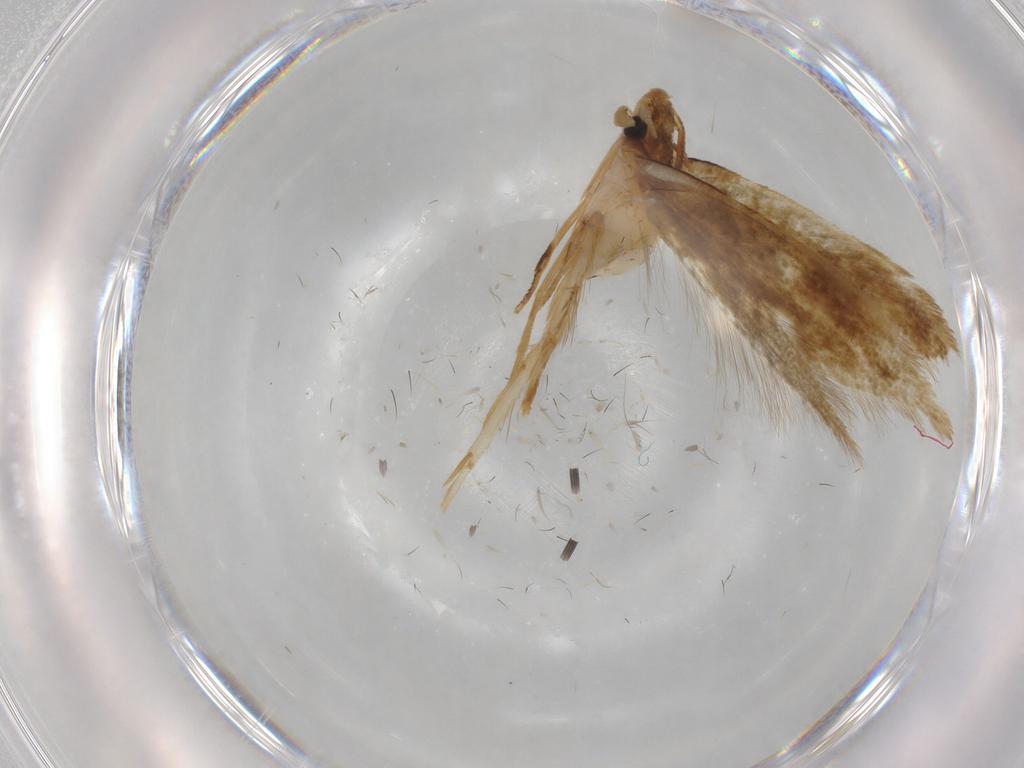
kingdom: Animalia
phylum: Arthropoda
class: Insecta
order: Lepidoptera
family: Tineidae
